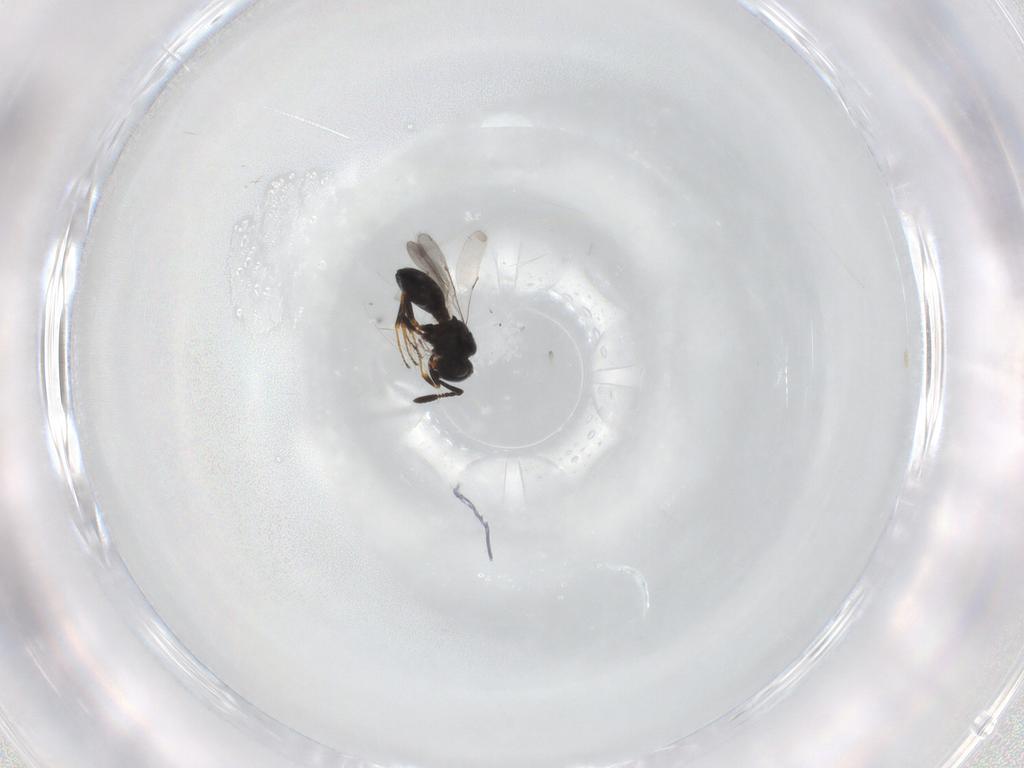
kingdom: Animalia
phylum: Arthropoda
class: Insecta
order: Hymenoptera
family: Scelionidae
